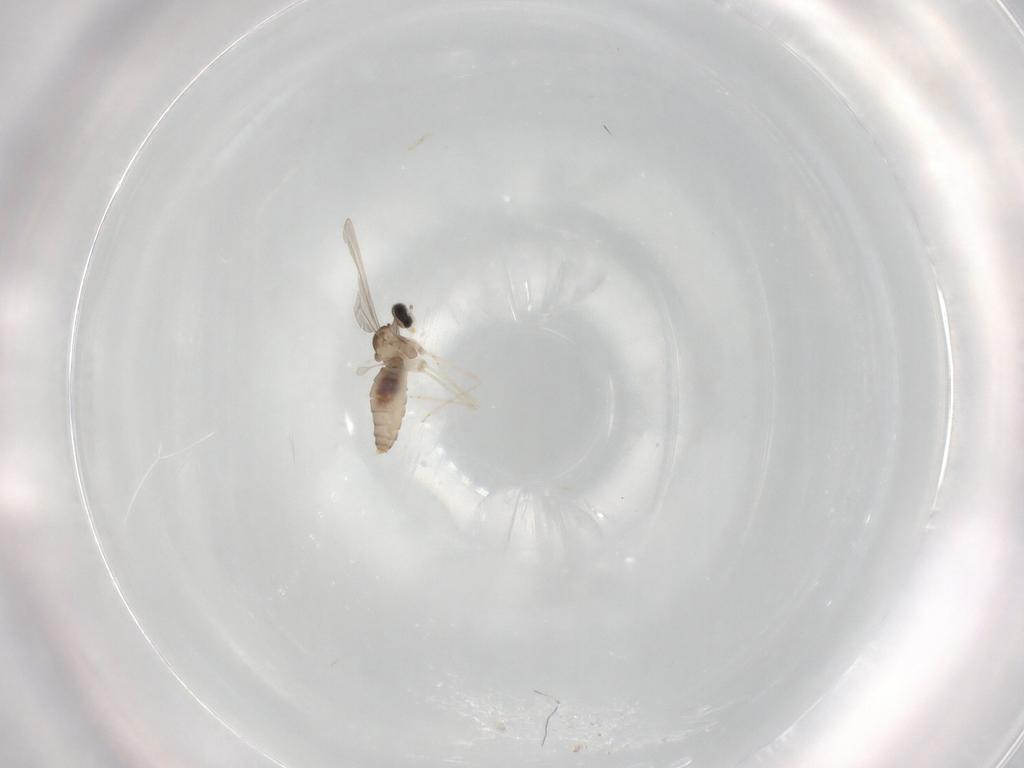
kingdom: Animalia
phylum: Arthropoda
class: Insecta
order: Diptera
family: Cecidomyiidae
